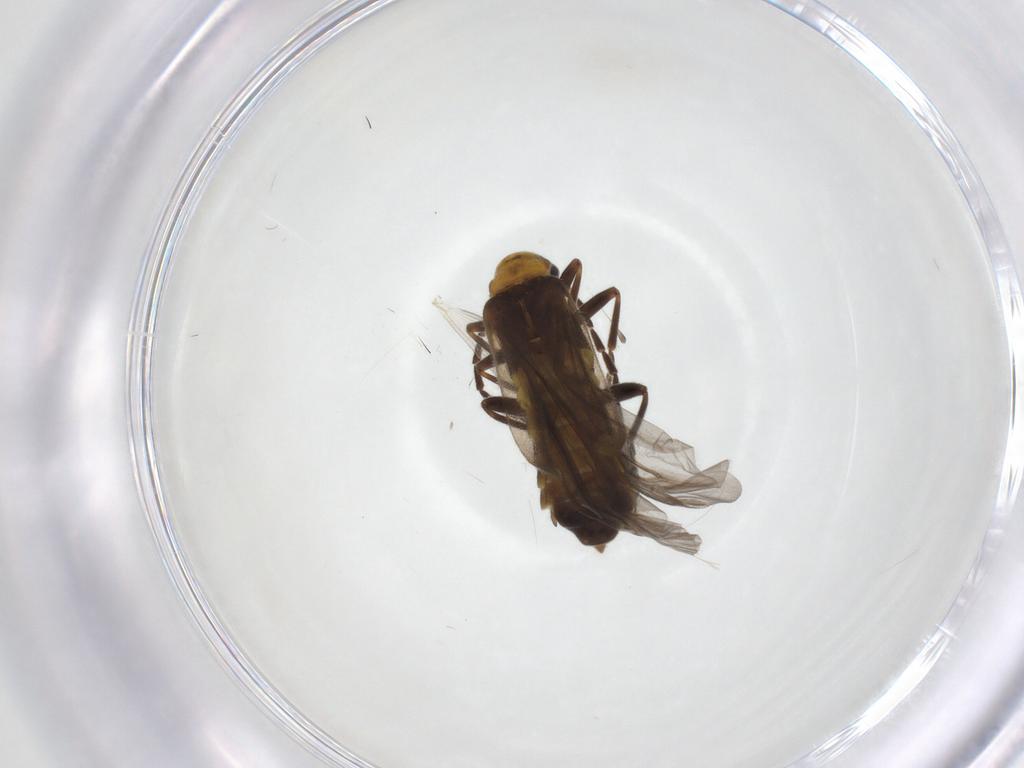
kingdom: Animalia
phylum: Arthropoda
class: Insecta
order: Coleoptera
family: Cantharidae
